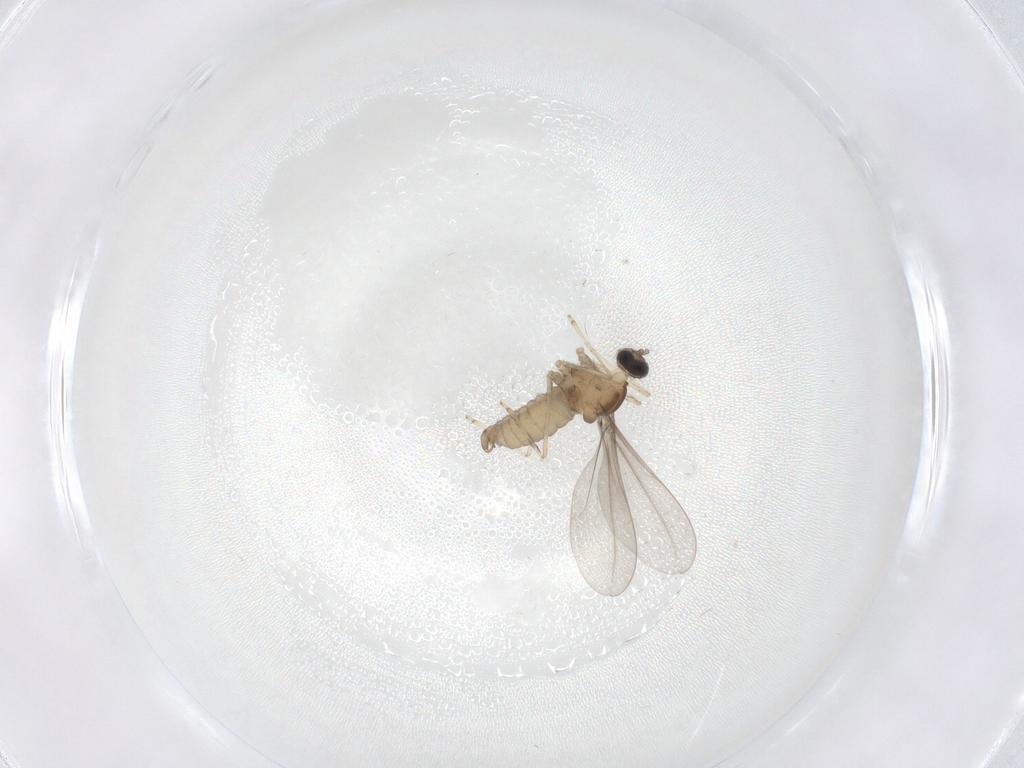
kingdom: Animalia
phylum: Arthropoda
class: Insecta
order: Diptera
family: Cecidomyiidae
